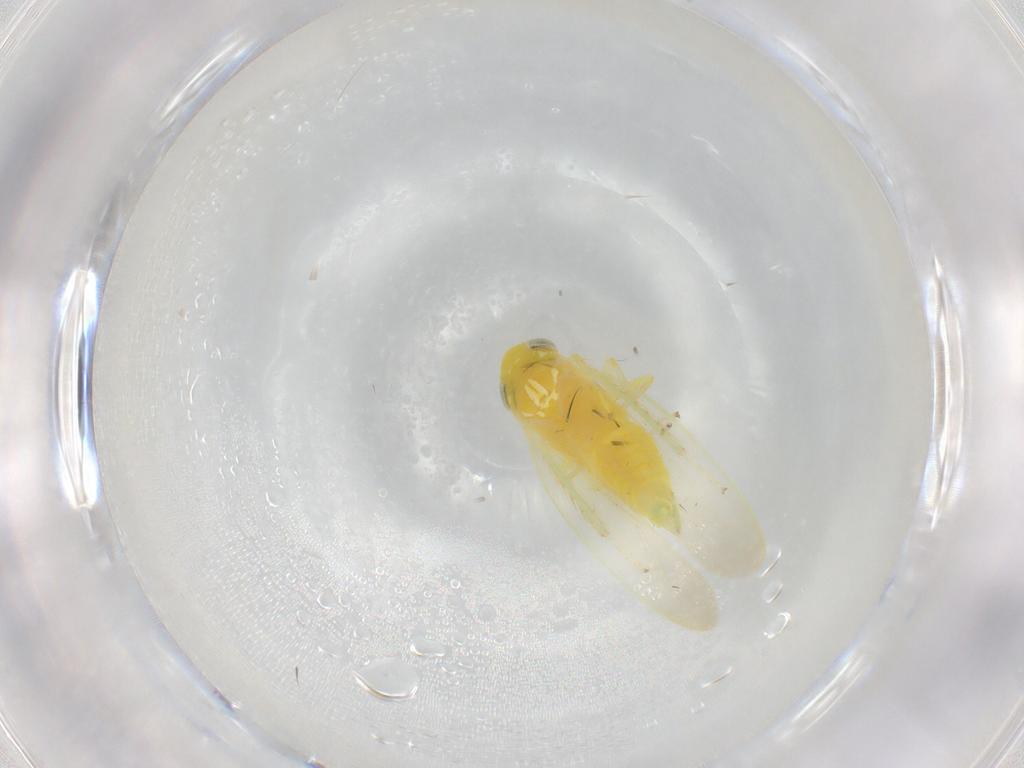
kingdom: Animalia
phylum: Arthropoda
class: Insecta
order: Hemiptera
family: Cicadellidae
